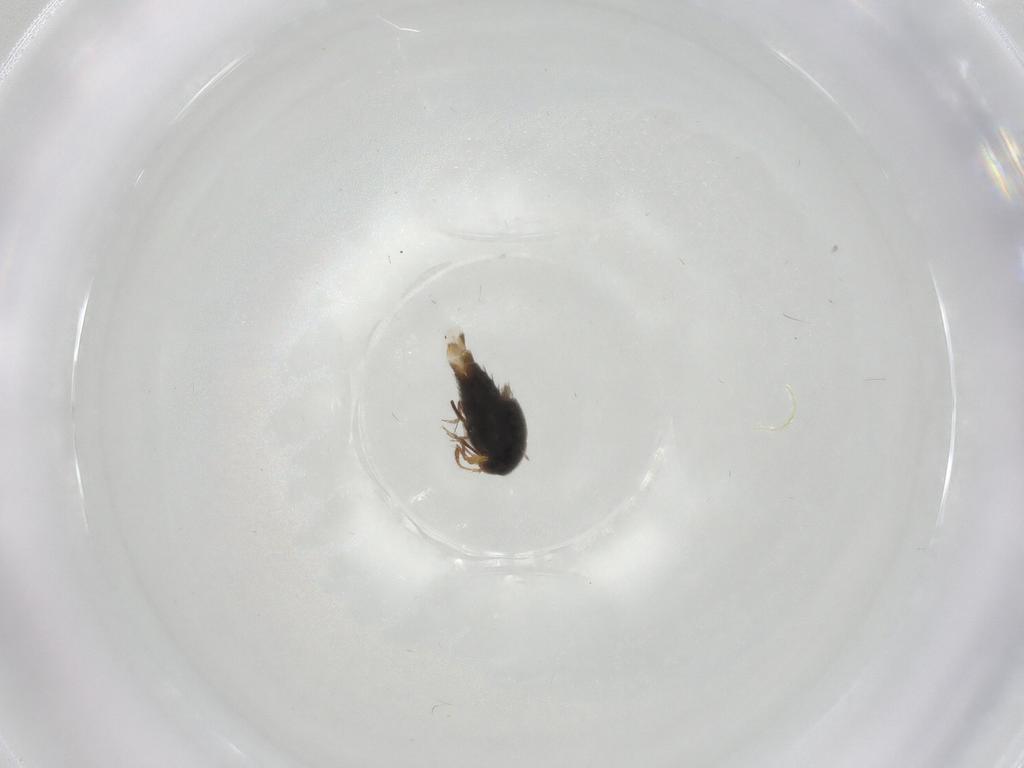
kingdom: Animalia
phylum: Arthropoda
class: Insecta
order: Coleoptera
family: Staphylinidae
